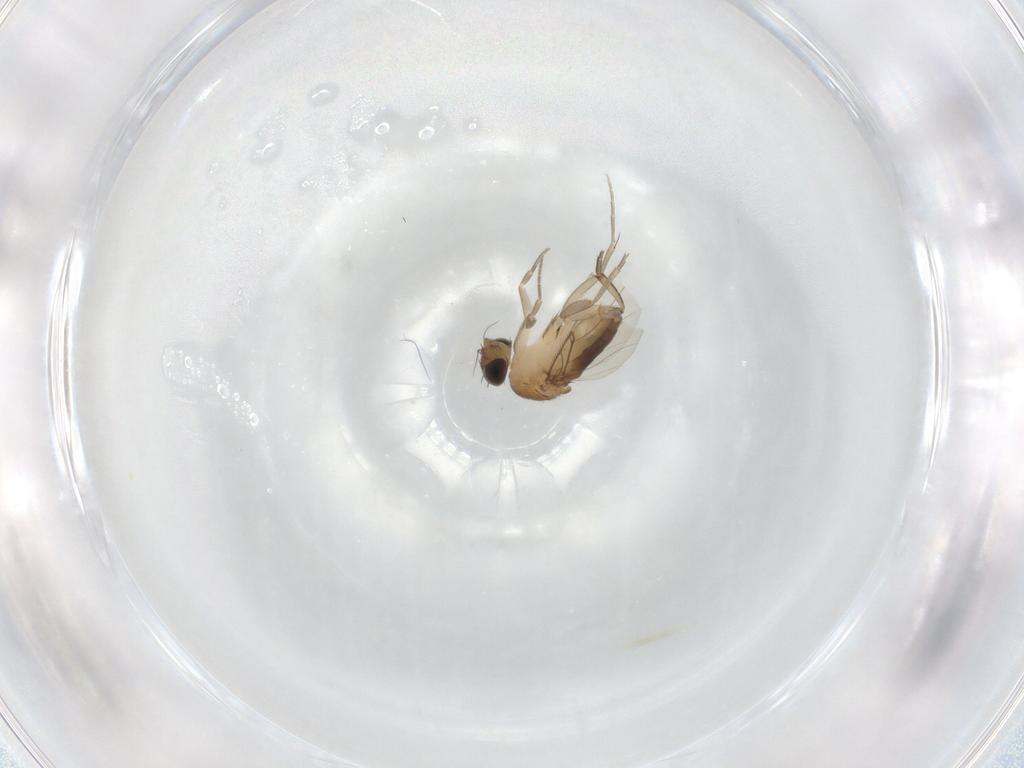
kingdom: Animalia
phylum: Arthropoda
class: Insecta
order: Diptera
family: Phoridae
